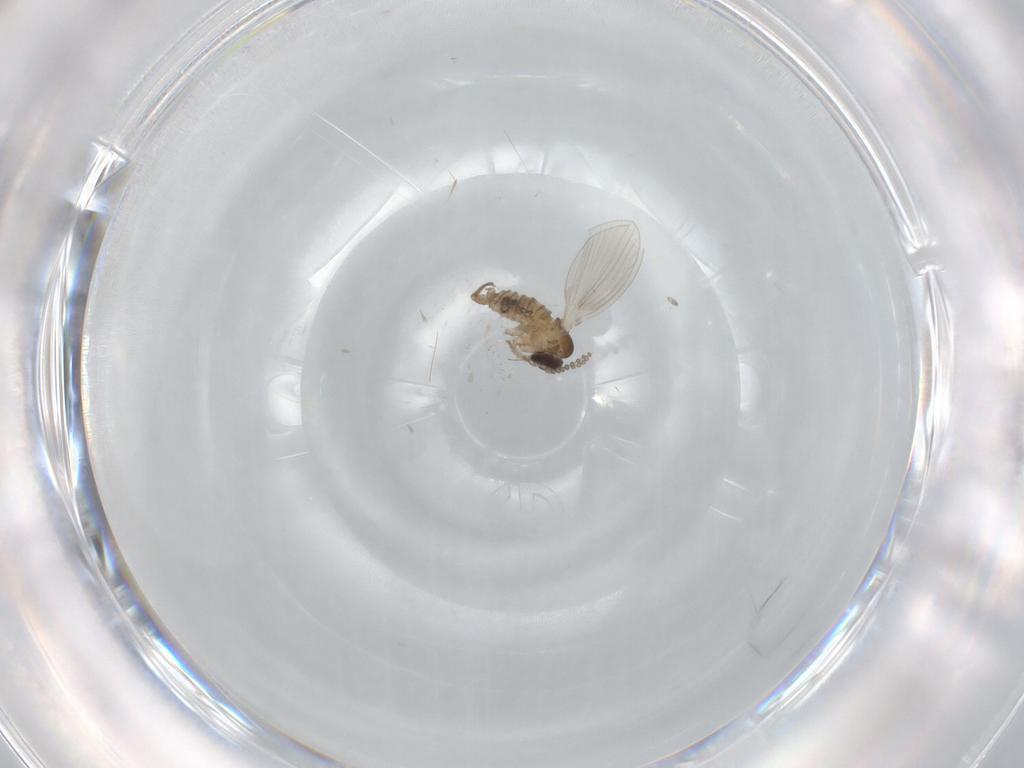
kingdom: Animalia
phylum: Arthropoda
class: Insecta
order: Diptera
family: Psychodidae
